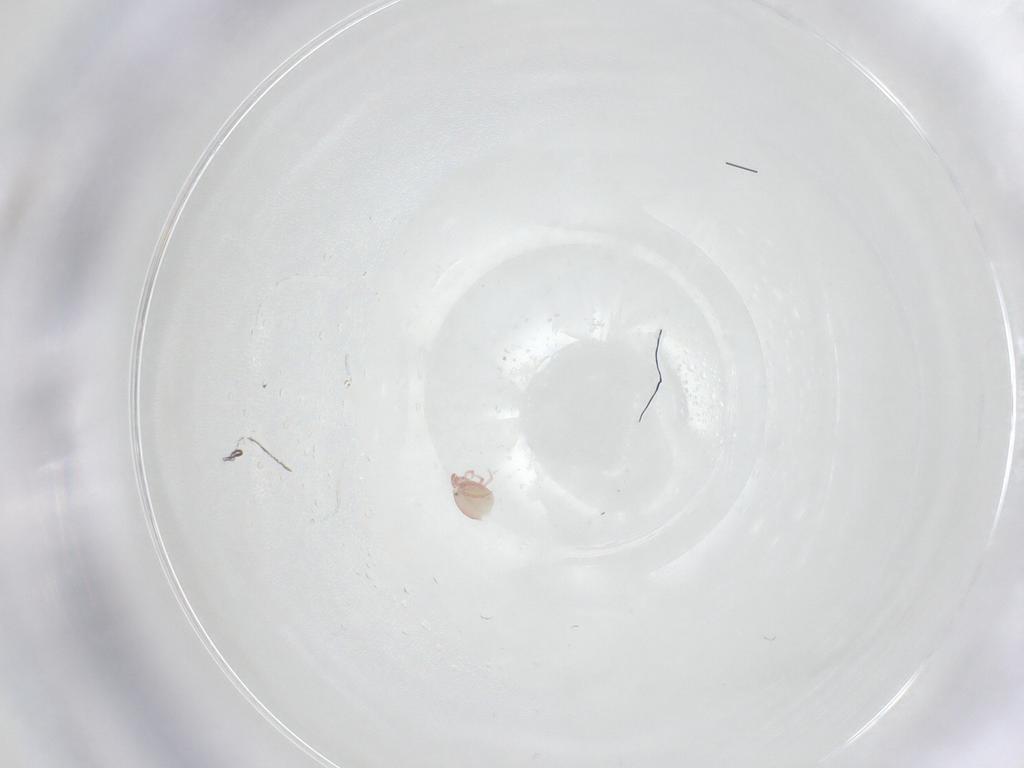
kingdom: Animalia
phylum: Arthropoda
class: Arachnida
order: Trombidiformes
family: Pionidae
